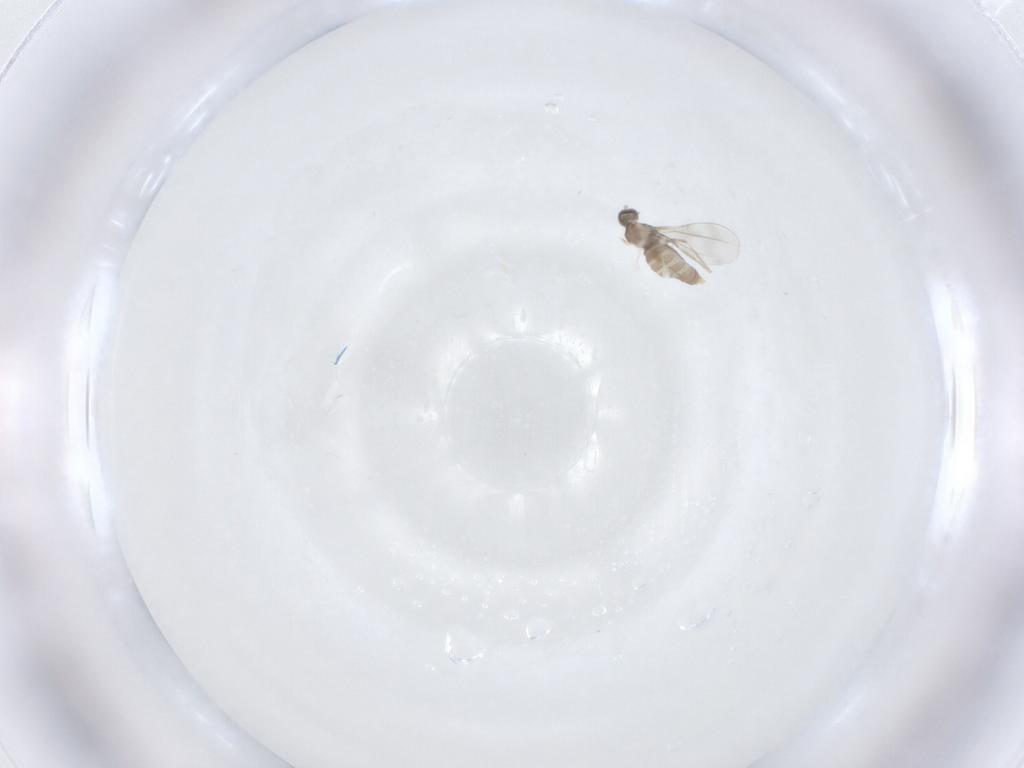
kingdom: Animalia
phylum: Arthropoda
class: Insecta
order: Diptera
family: Cecidomyiidae
